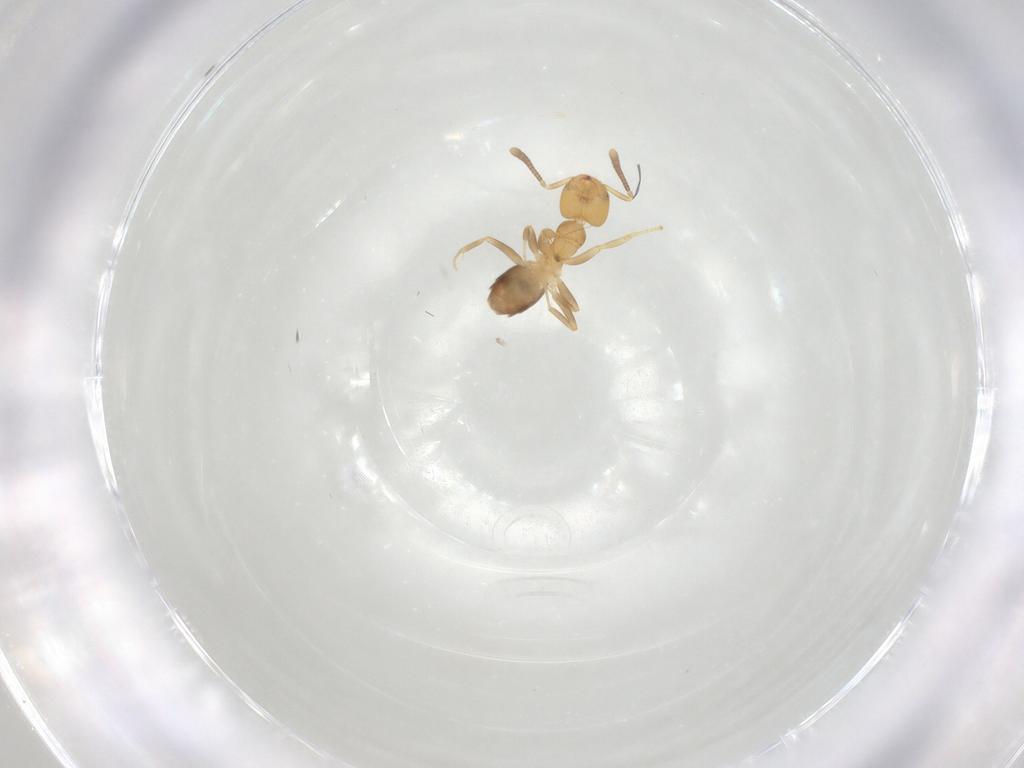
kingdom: Animalia
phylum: Arthropoda
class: Insecta
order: Hymenoptera
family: Formicidae
